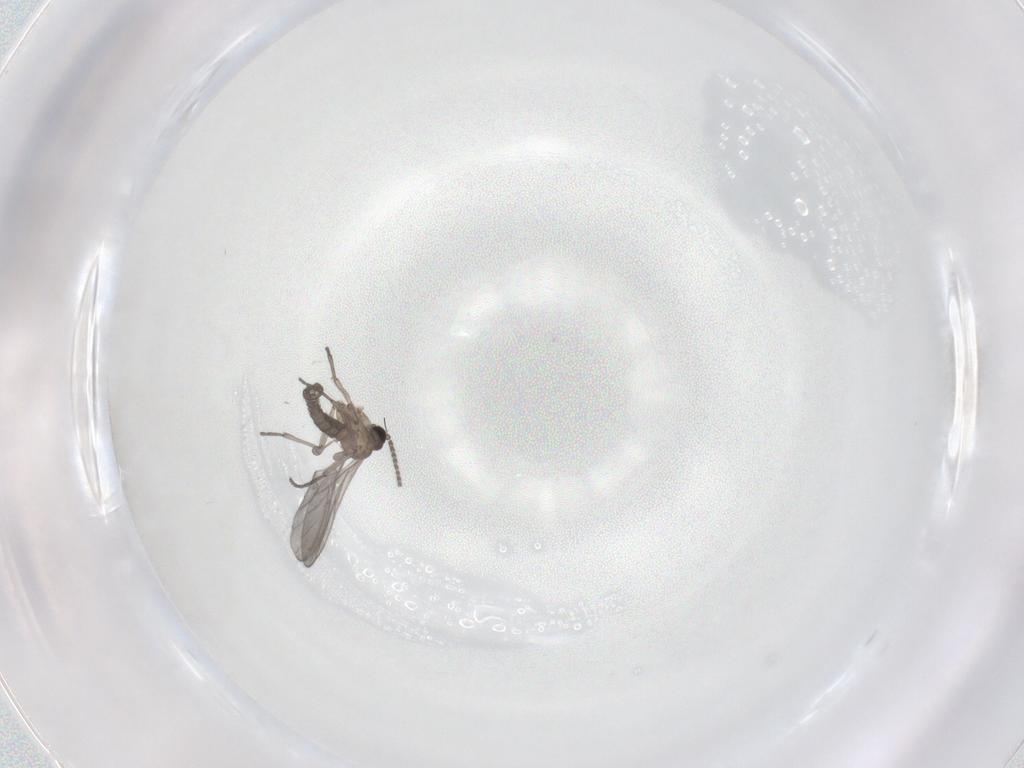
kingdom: Animalia
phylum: Arthropoda
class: Insecta
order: Diptera
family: Sciaridae
